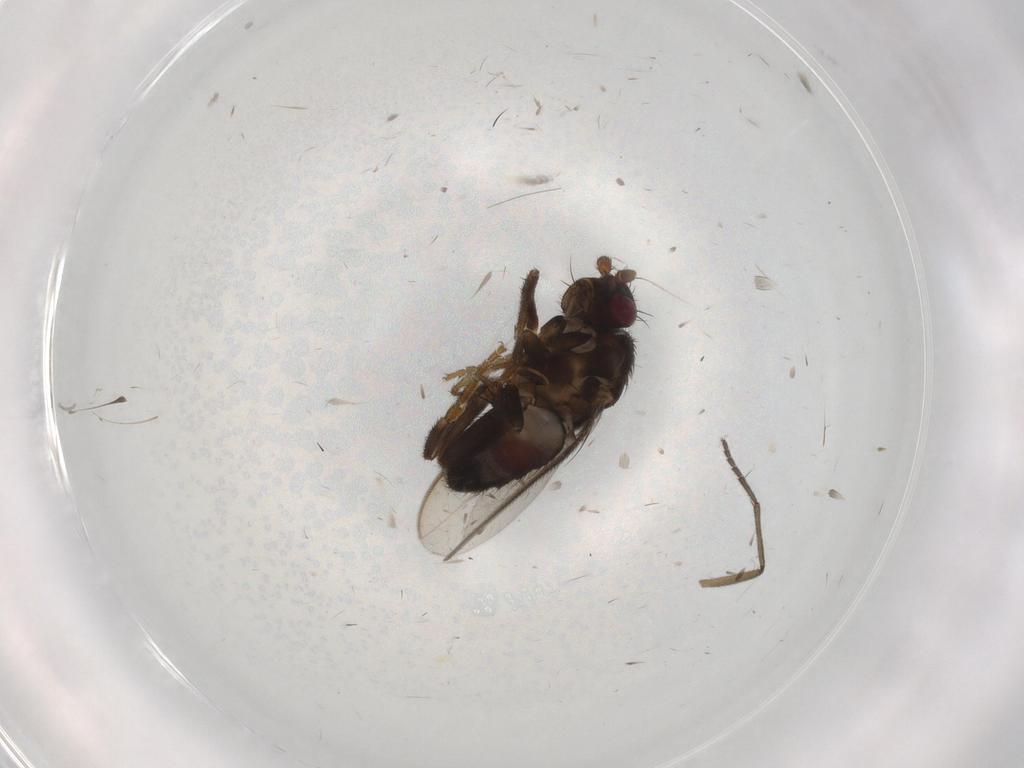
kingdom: Animalia
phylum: Arthropoda
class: Insecta
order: Diptera
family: Sphaeroceridae
